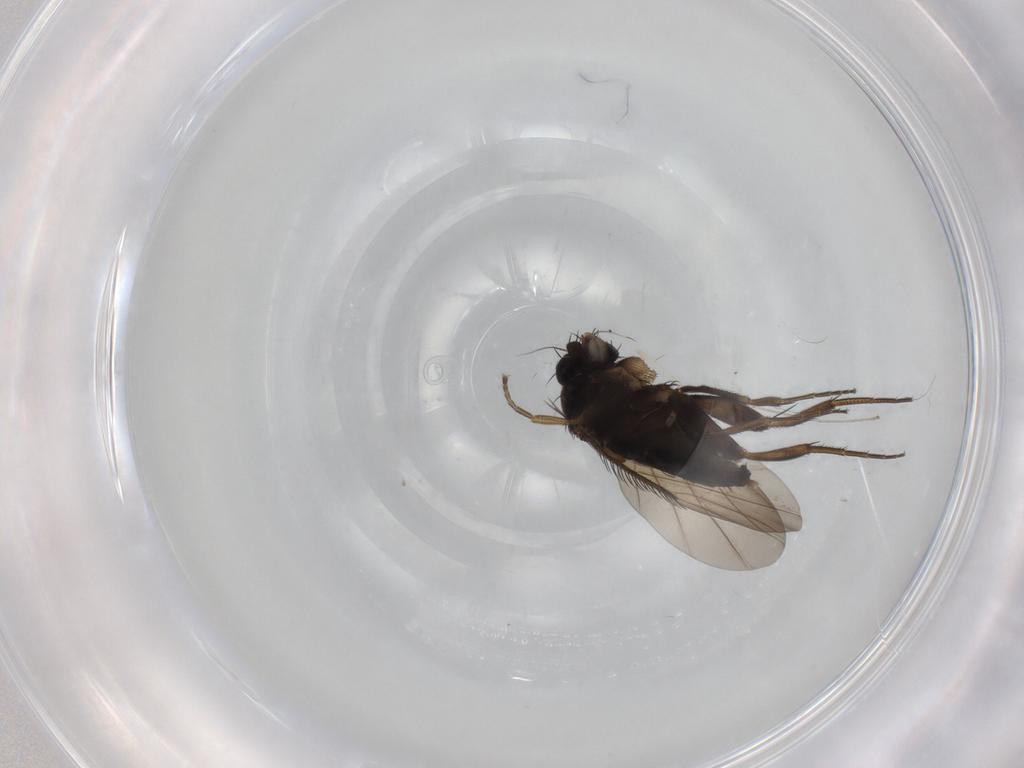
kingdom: Animalia
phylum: Arthropoda
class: Insecta
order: Diptera
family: Phoridae
